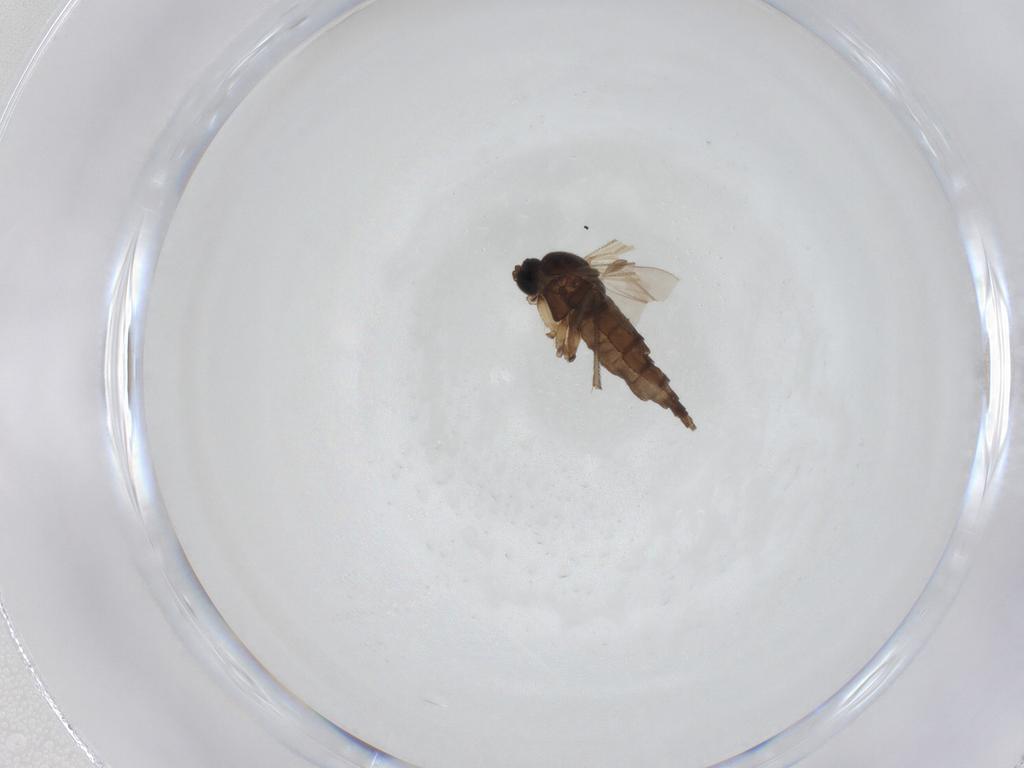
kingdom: Animalia
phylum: Arthropoda
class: Insecta
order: Diptera
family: Sciaridae
